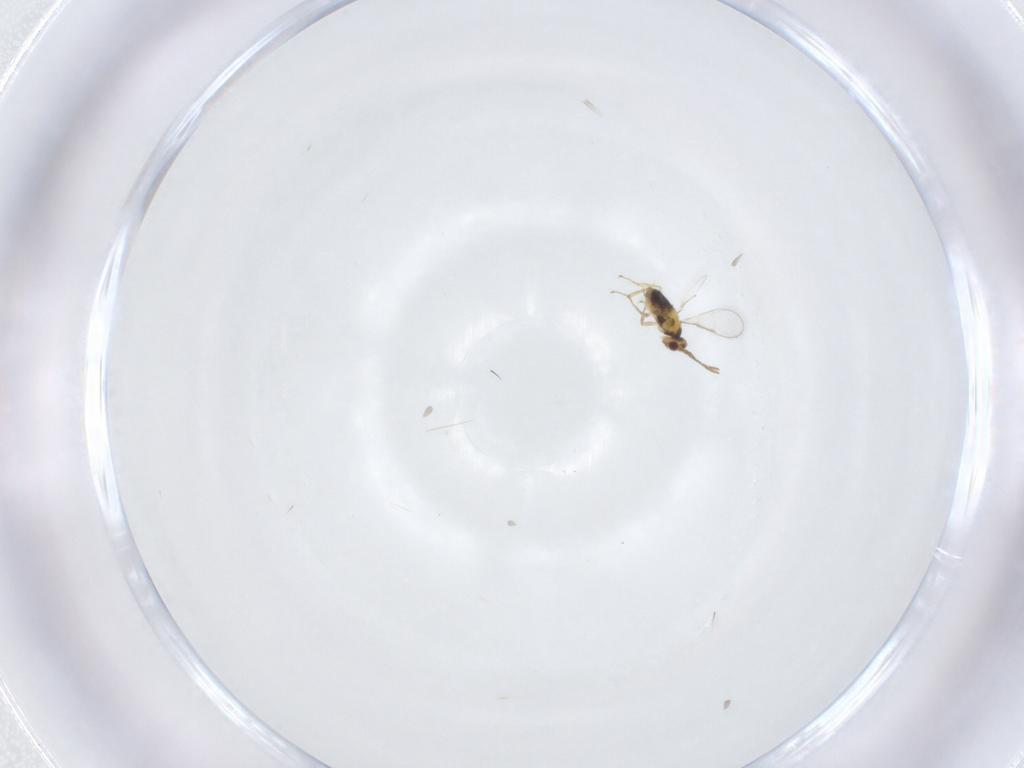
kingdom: Animalia
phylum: Arthropoda
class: Insecta
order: Hymenoptera
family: Aphelinidae
